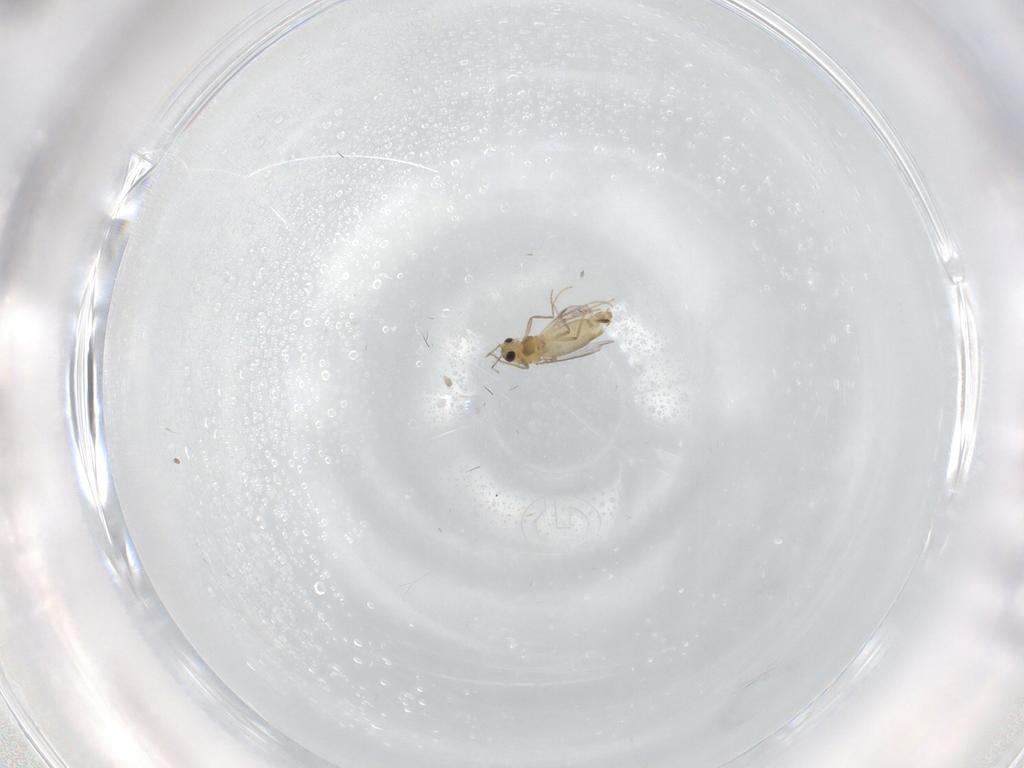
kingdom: Animalia
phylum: Arthropoda
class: Insecta
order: Diptera
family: Chironomidae
